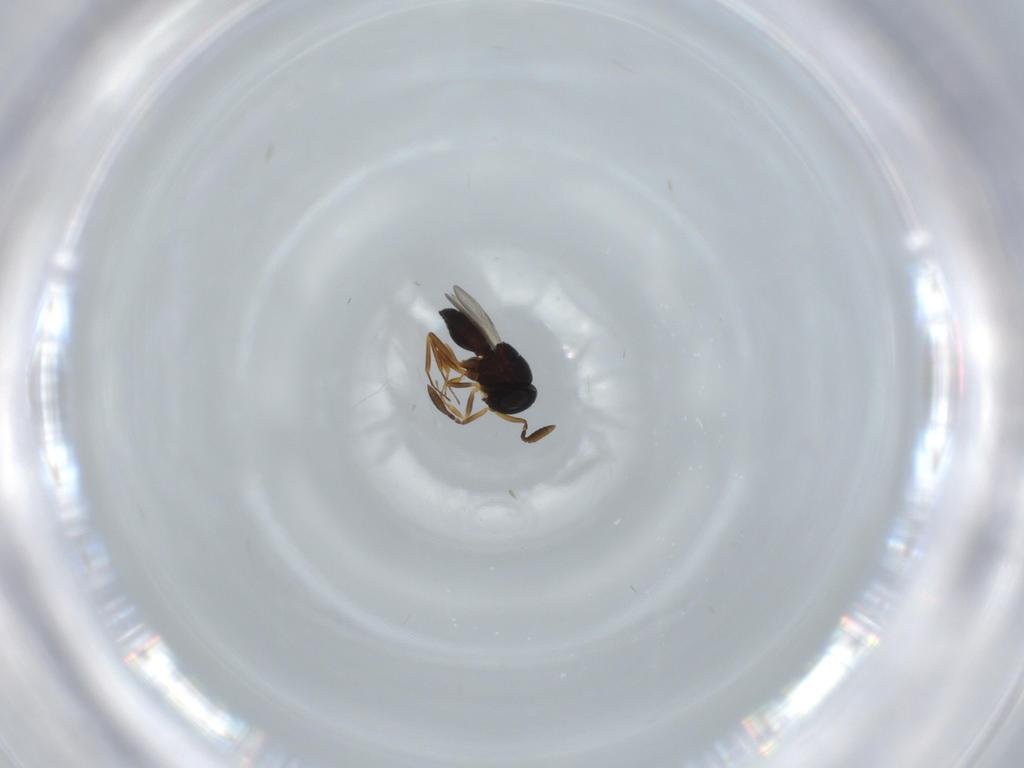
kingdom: Animalia
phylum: Arthropoda
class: Insecta
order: Hymenoptera
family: Scelionidae
